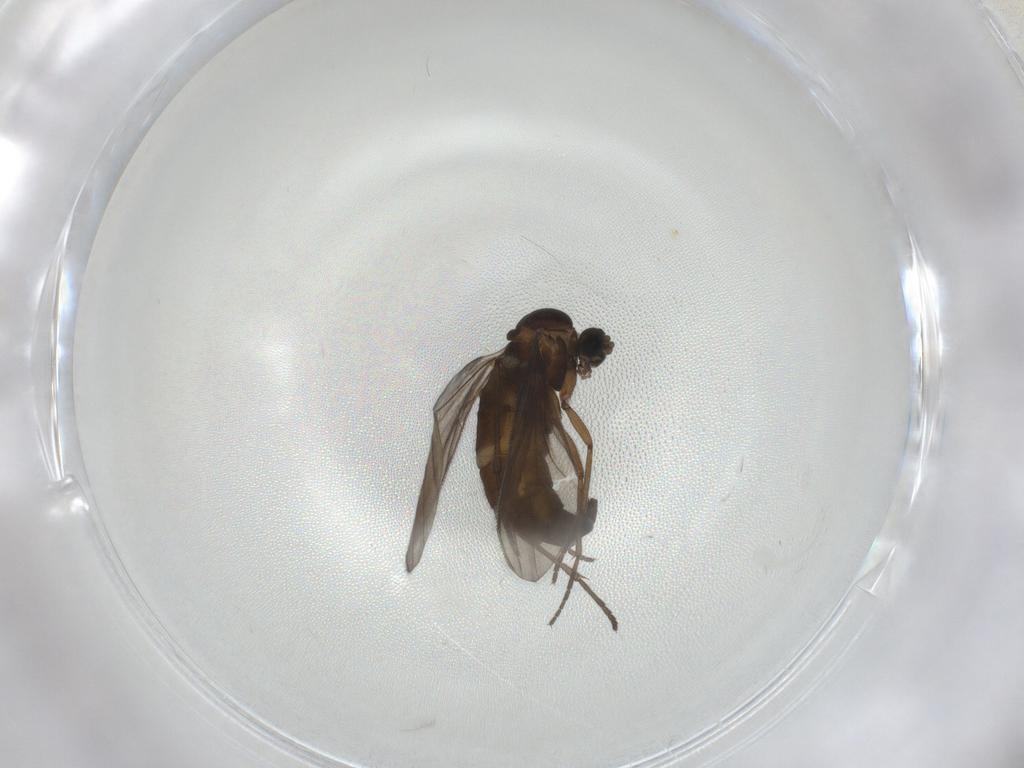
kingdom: Animalia
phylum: Arthropoda
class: Insecta
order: Diptera
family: Sciaridae
